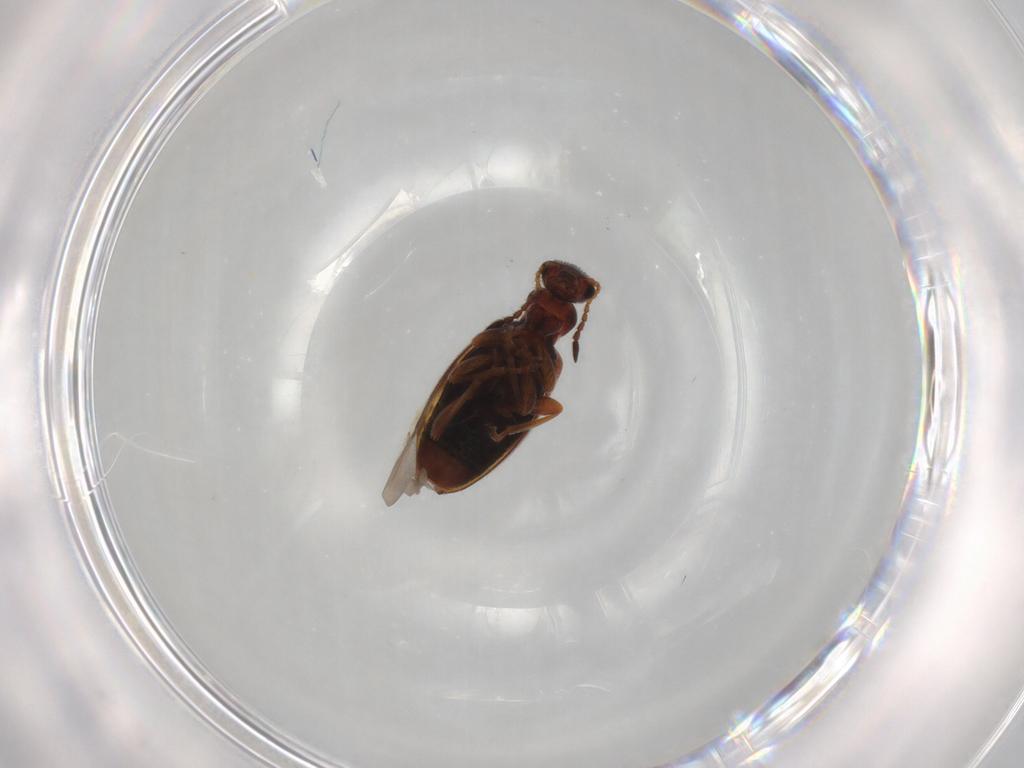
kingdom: Animalia
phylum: Arthropoda
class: Insecta
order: Coleoptera
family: Anthicidae
